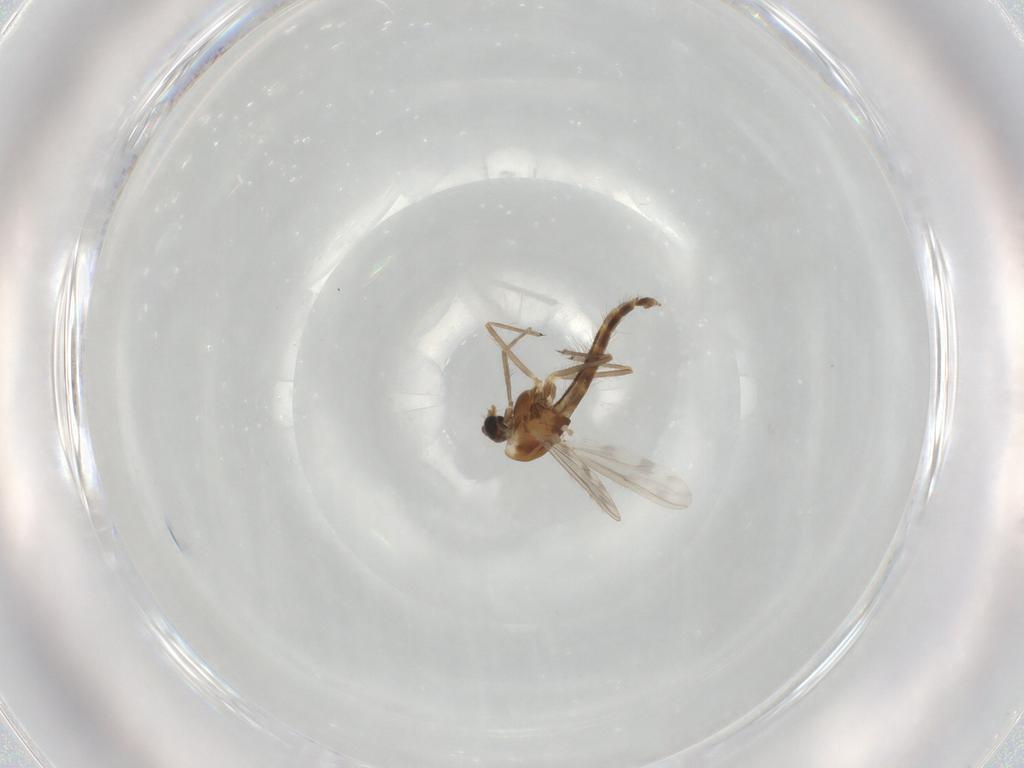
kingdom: Animalia
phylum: Arthropoda
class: Insecta
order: Diptera
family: Chironomidae
